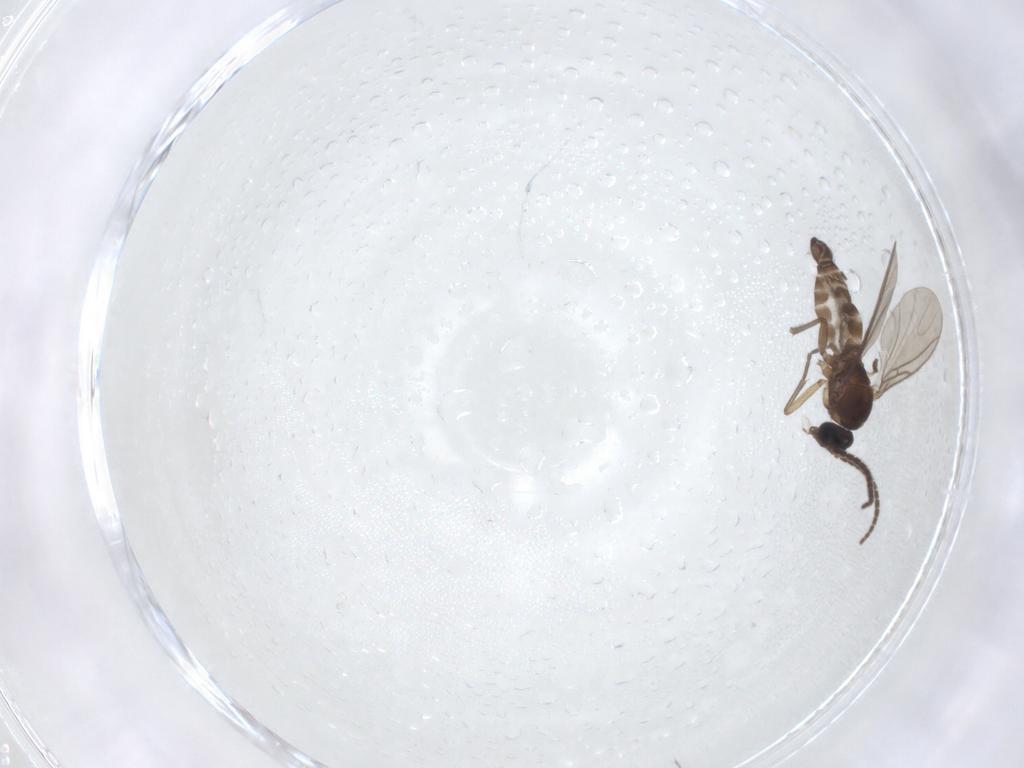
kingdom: Animalia
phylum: Arthropoda
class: Insecta
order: Diptera
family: Sciaridae
